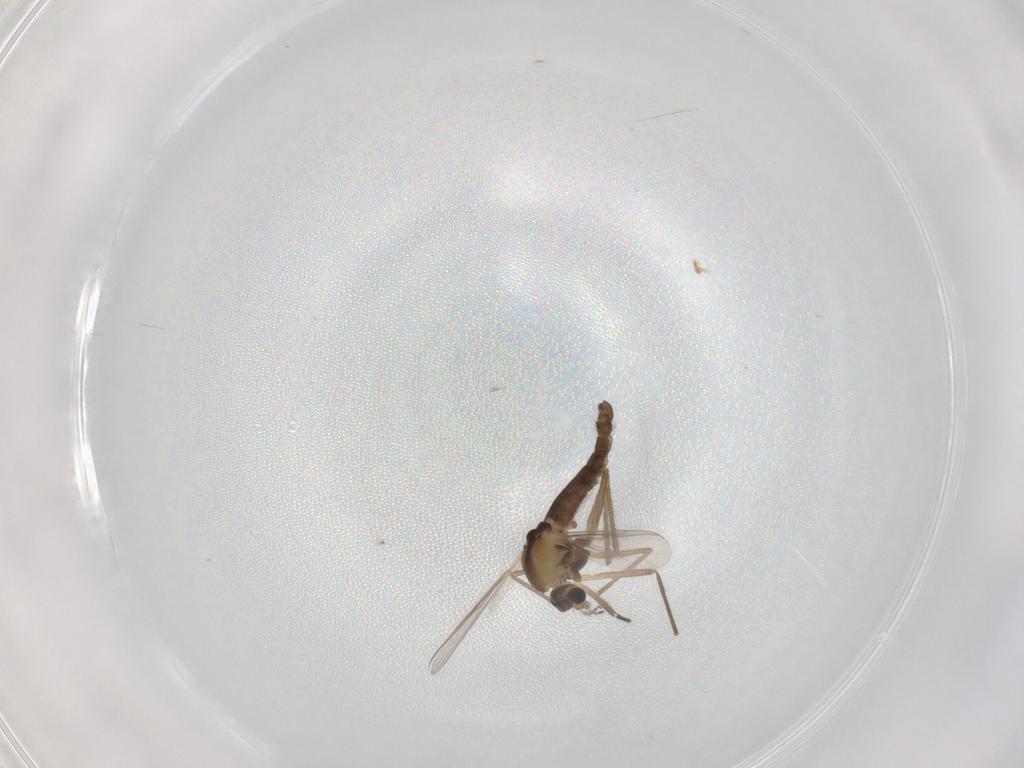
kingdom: Animalia
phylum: Arthropoda
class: Insecta
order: Diptera
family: Chironomidae
